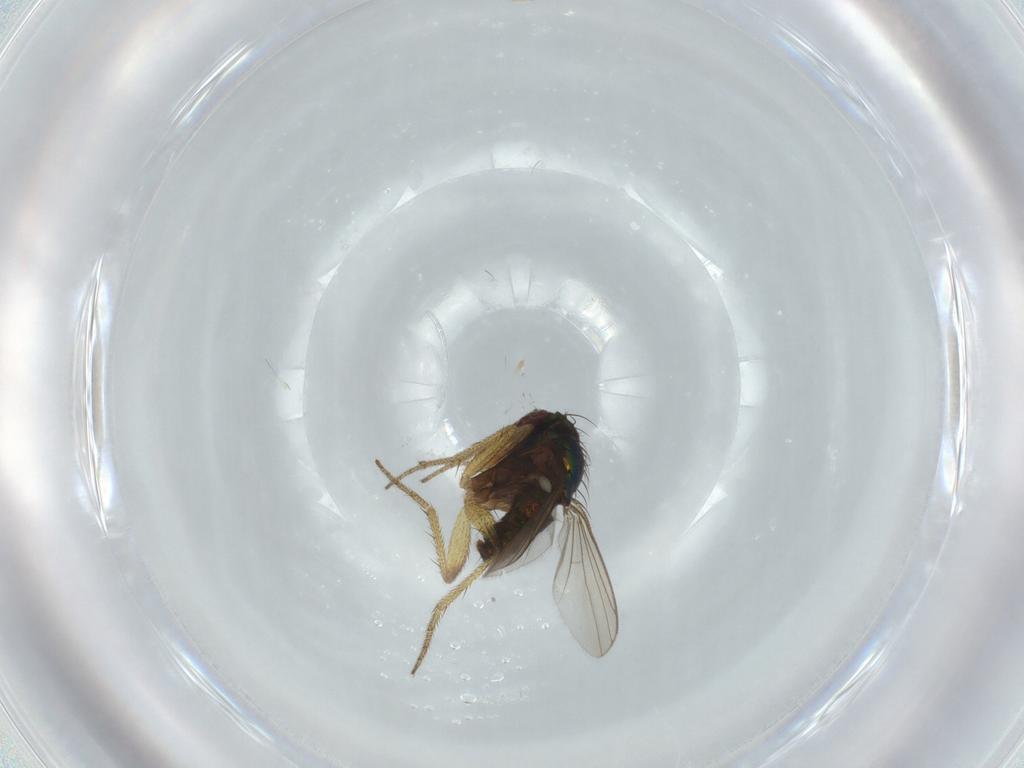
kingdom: Animalia
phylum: Arthropoda
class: Insecta
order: Diptera
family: Dolichopodidae
